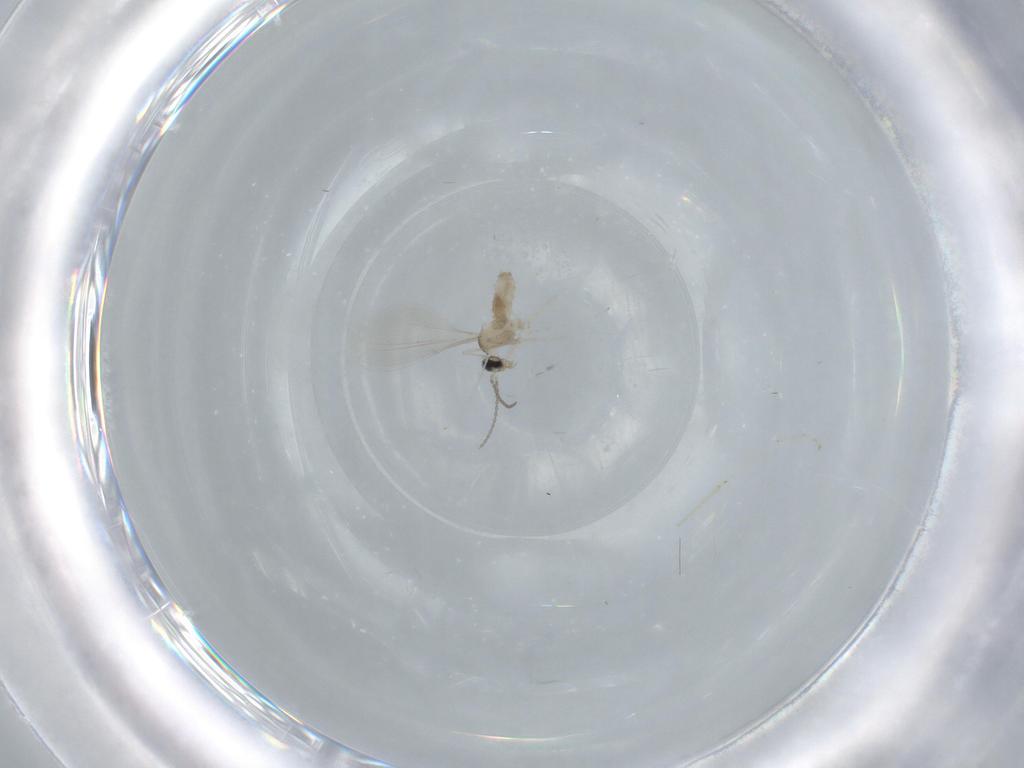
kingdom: Animalia
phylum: Arthropoda
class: Insecta
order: Diptera
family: Cecidomyiidae
